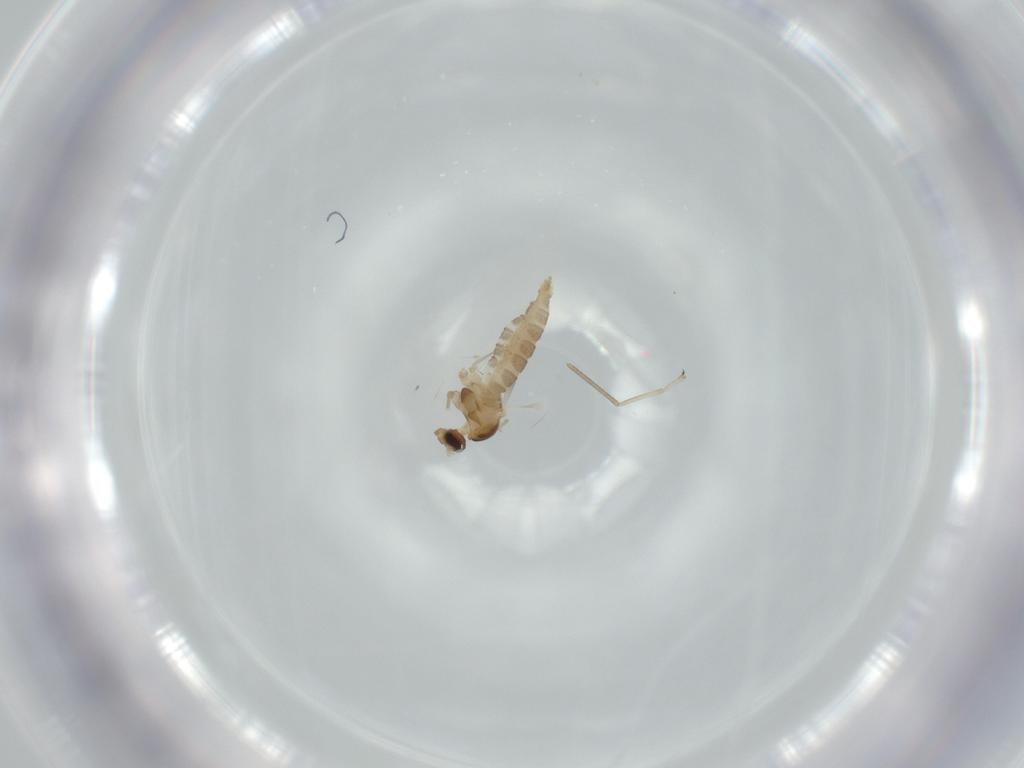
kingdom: Animalia
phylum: Arthropoda
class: Insecta
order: Diptera
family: Cecidomyiidae
